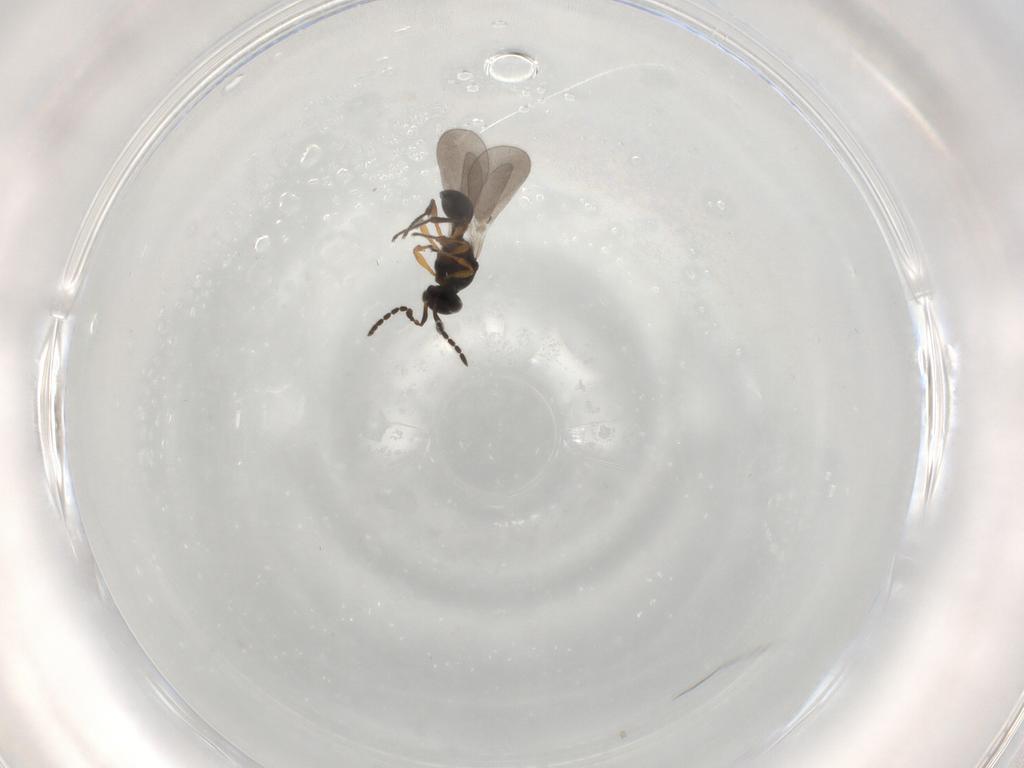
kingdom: Animalia
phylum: Arthropoda
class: Insecta
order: Hymenoptera
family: Platygastridae
